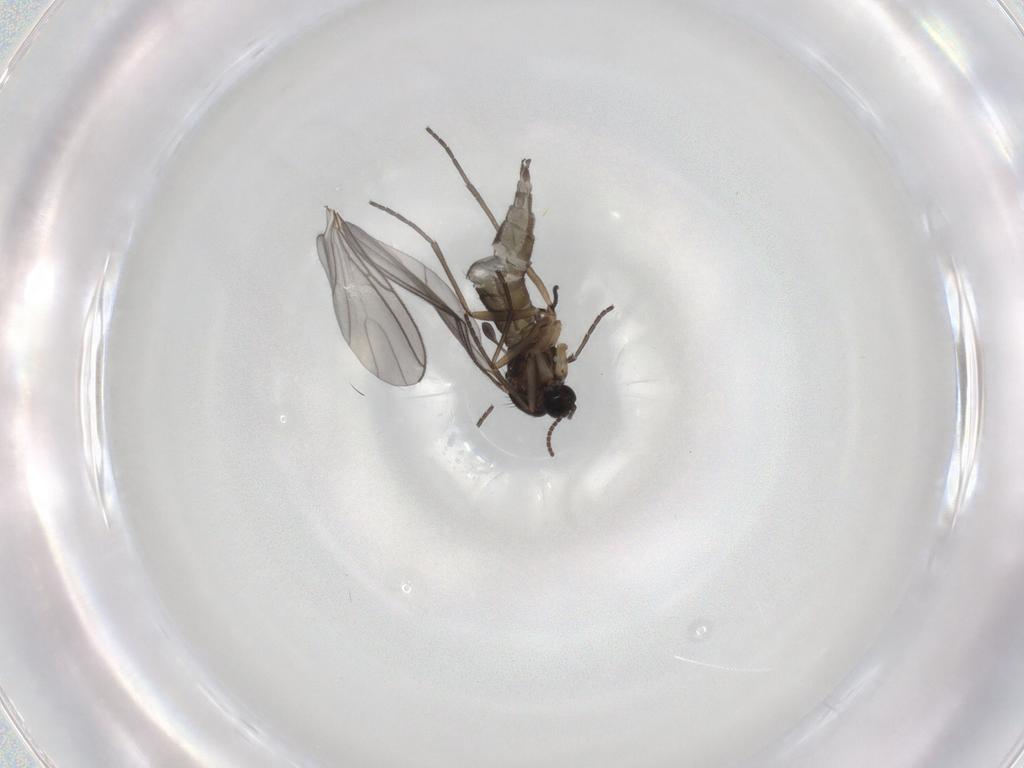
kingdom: Animalia
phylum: Arthropoda
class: Insecta
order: Diptera
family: Sciaridae
